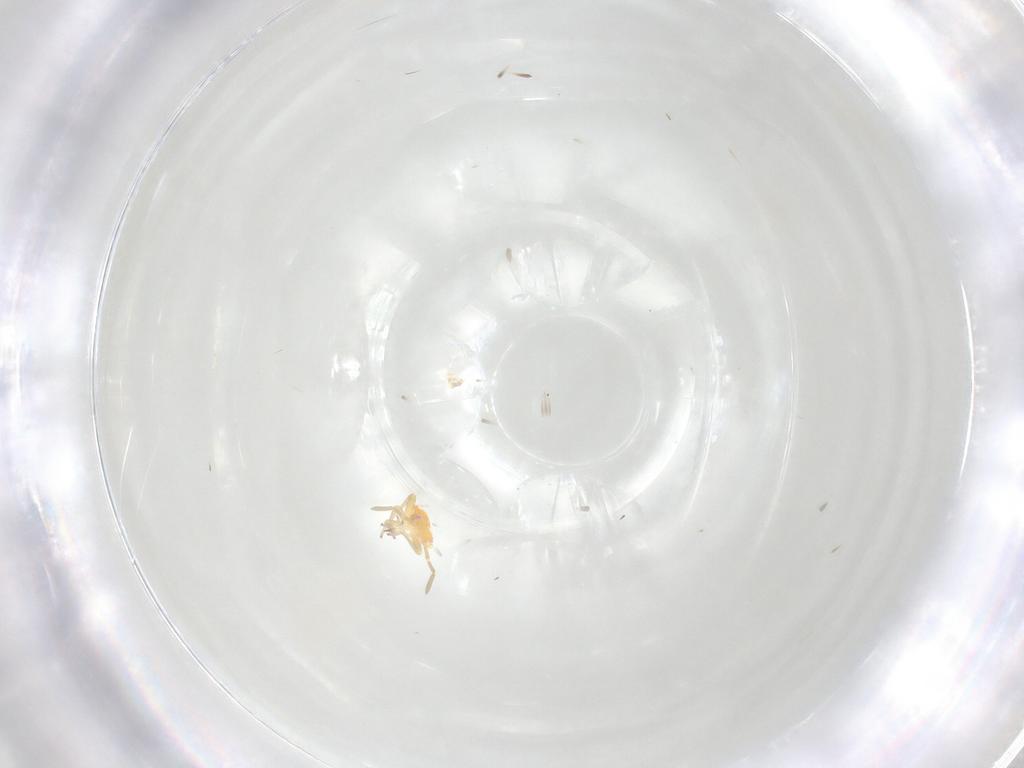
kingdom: Animalia
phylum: Arthropoda
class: Insecta
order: Hemiptera
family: Miridae
